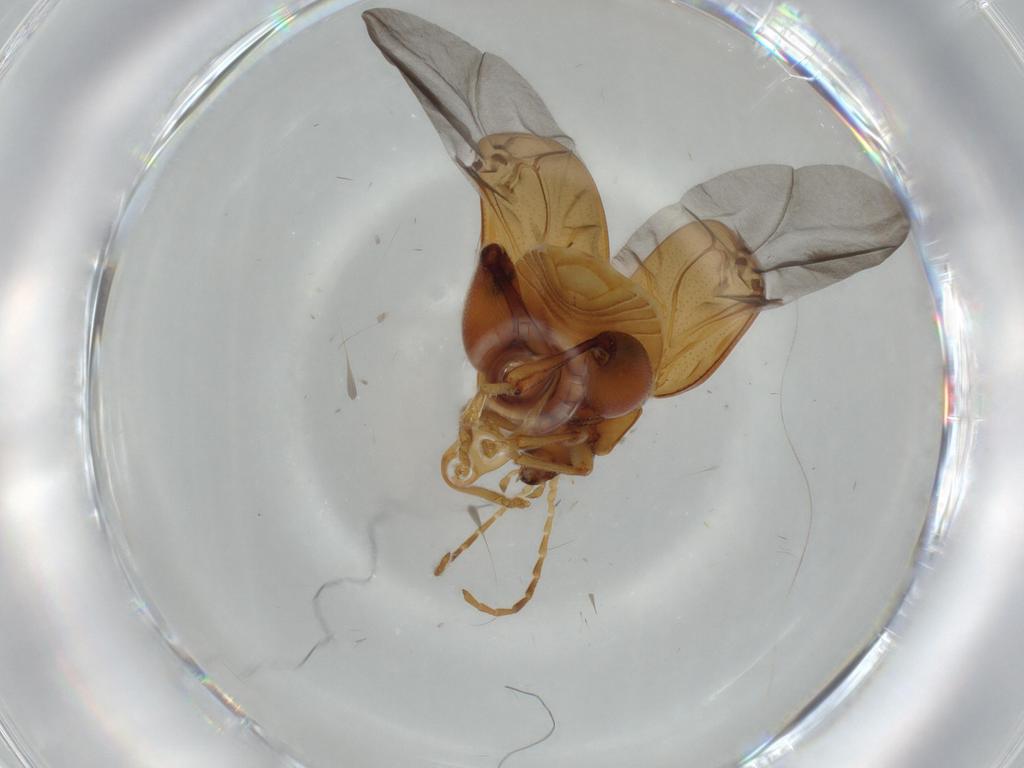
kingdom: Animalia
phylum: Arthropoda
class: Insecta
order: Coleoptera
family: Chrysomelidae
